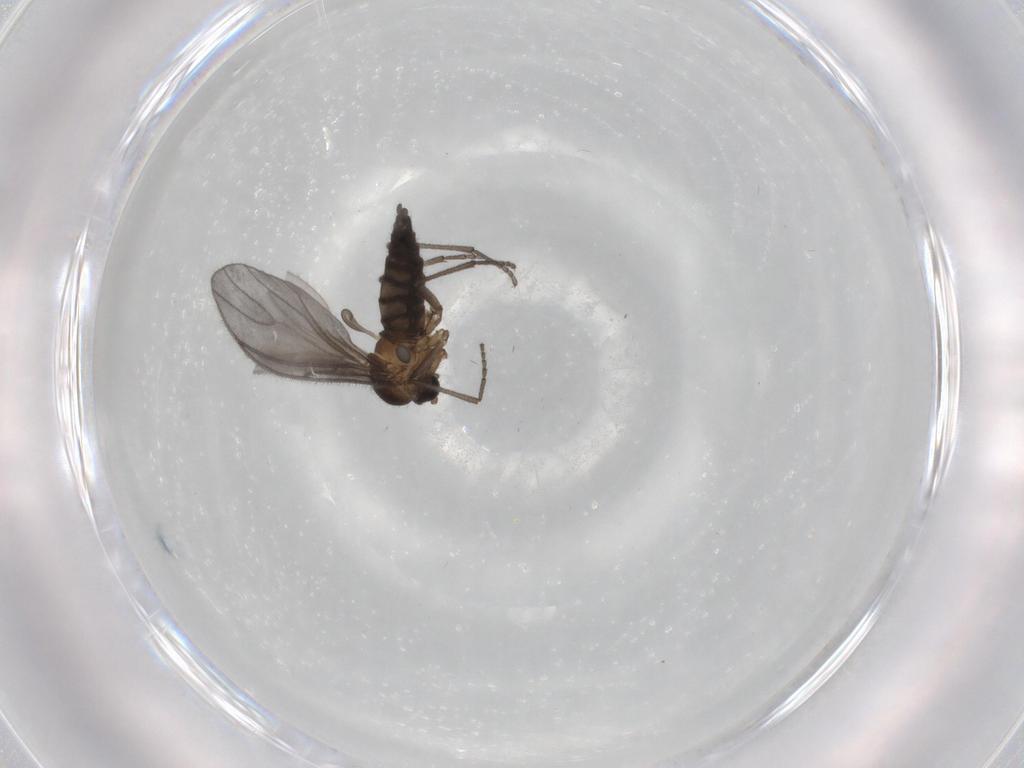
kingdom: Animalia
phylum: Arthropoda
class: Insecta
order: Diptera
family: Sciaridae
